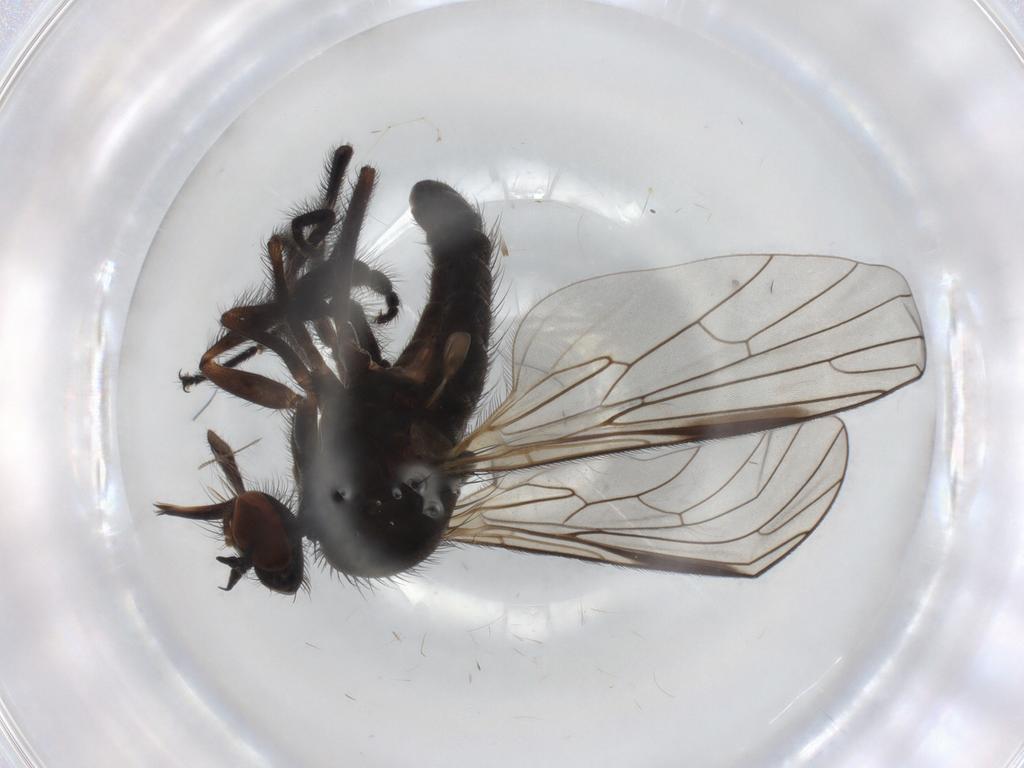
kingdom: Animalia
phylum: Arthropoda
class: Insecta
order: Diptera
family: Empididae
